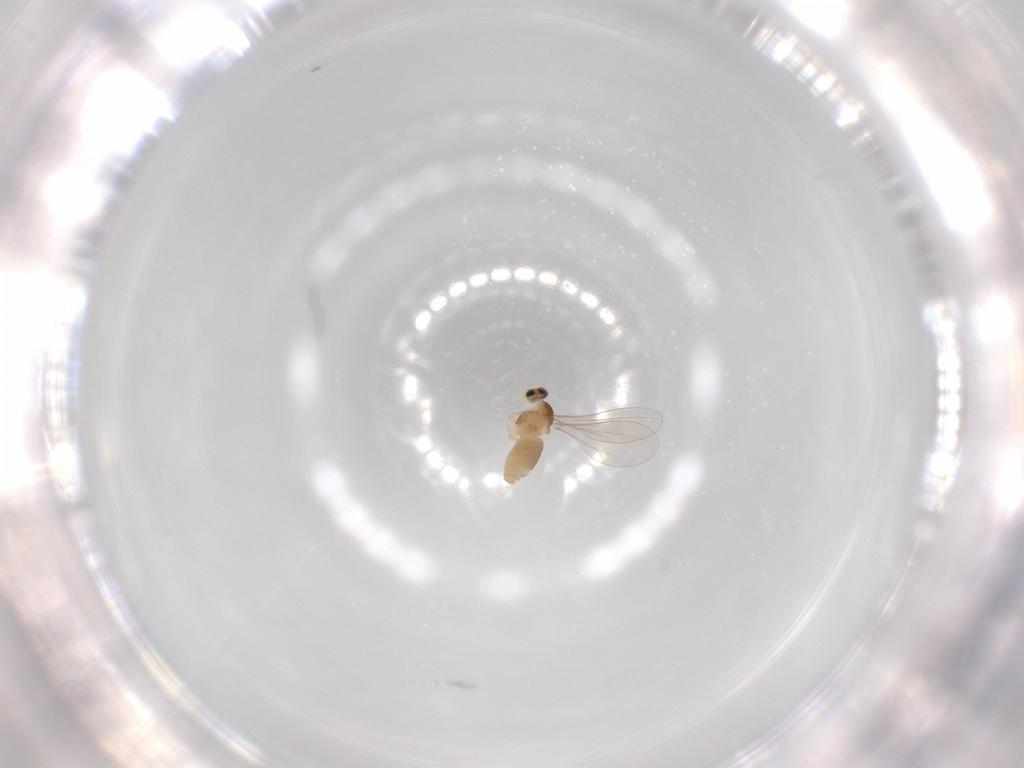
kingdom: Animalia
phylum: Arthropoda
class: Insecta
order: Diptera
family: Cecidomyiidae
